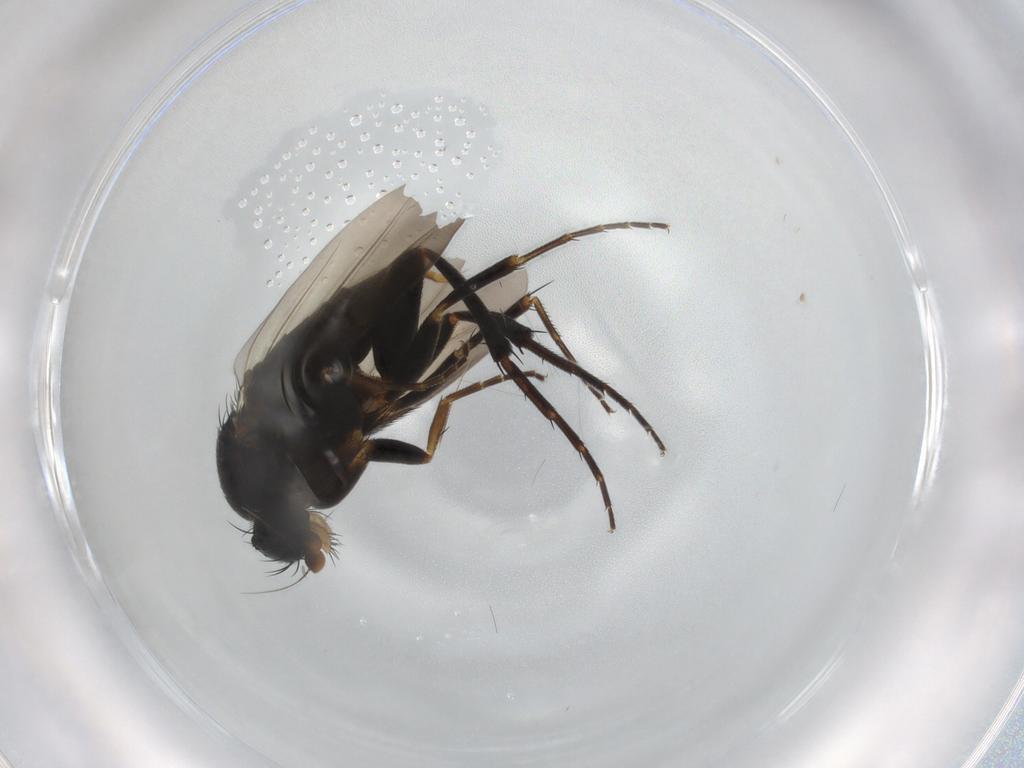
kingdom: Animalia
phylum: Arthropoda
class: Insecta
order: Diptera
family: Phoridae
